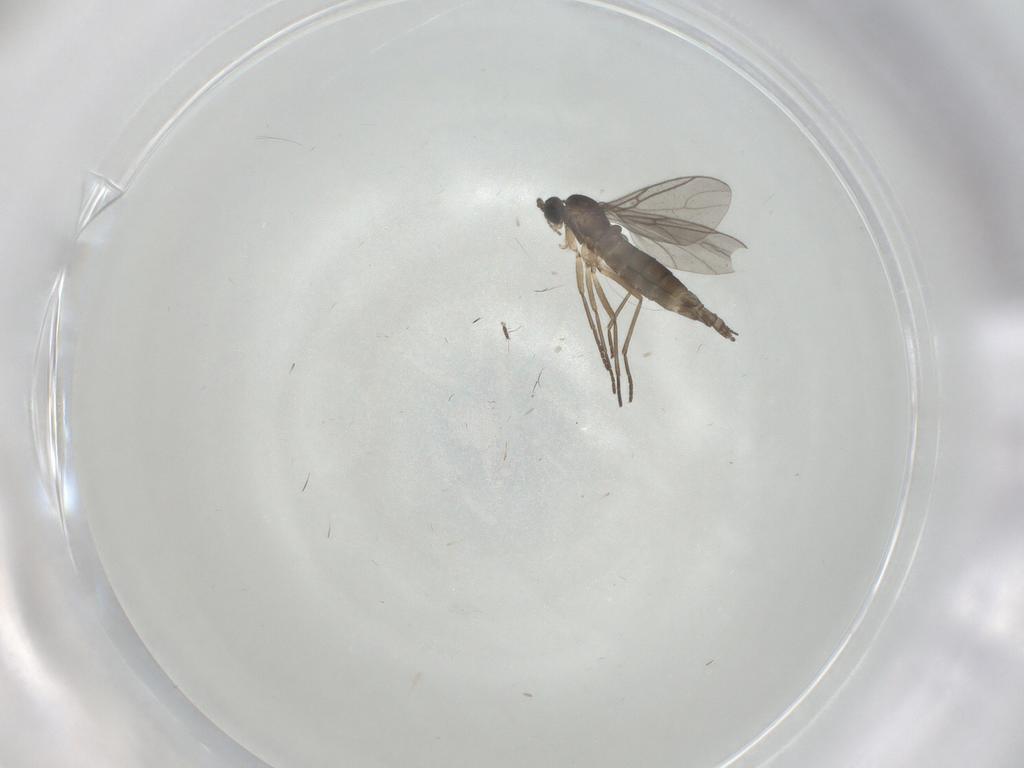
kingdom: Animalia
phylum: Arthropoda
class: Insecta
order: Diptera
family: Sciaridae
